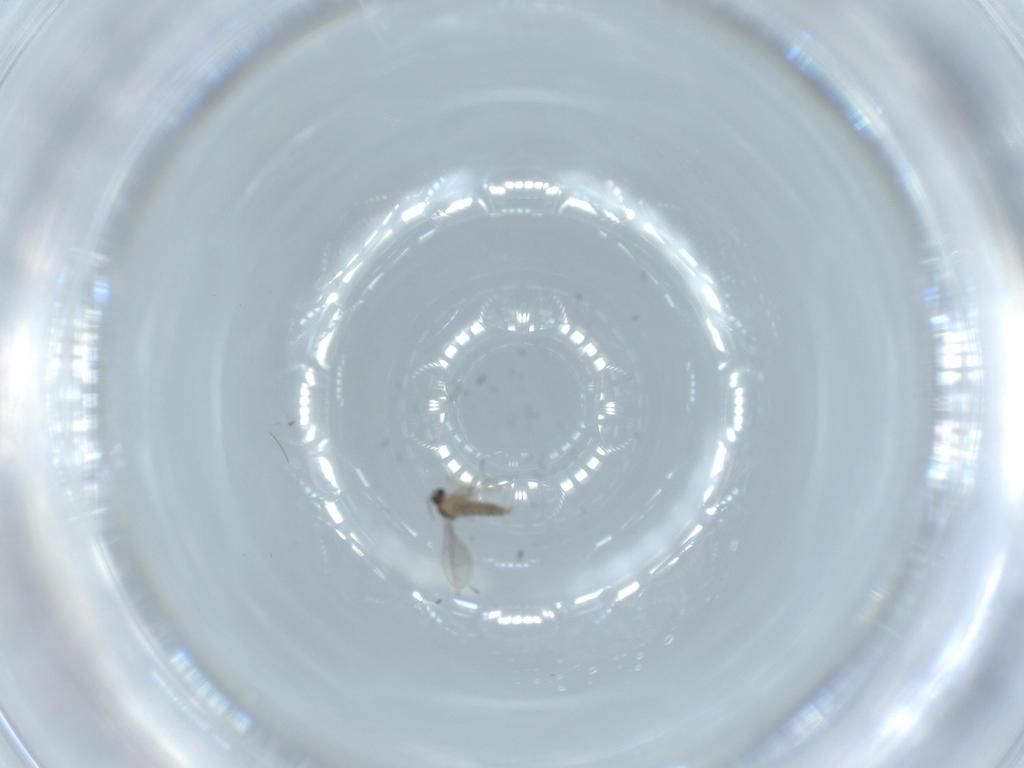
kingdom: Animalia
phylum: Arthropoda
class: Insecta
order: Diptera
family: Cecidomyiidae
